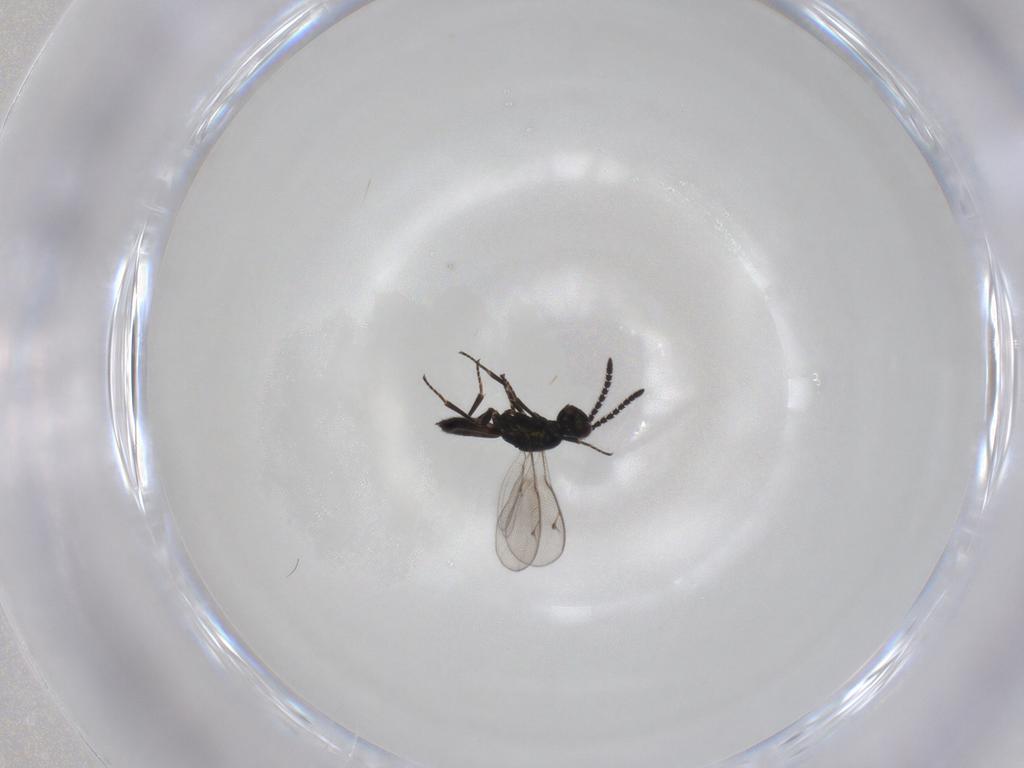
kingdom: Animalia
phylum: Arthropoda
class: Insecta
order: Hymenoptera
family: Eupelmidae
